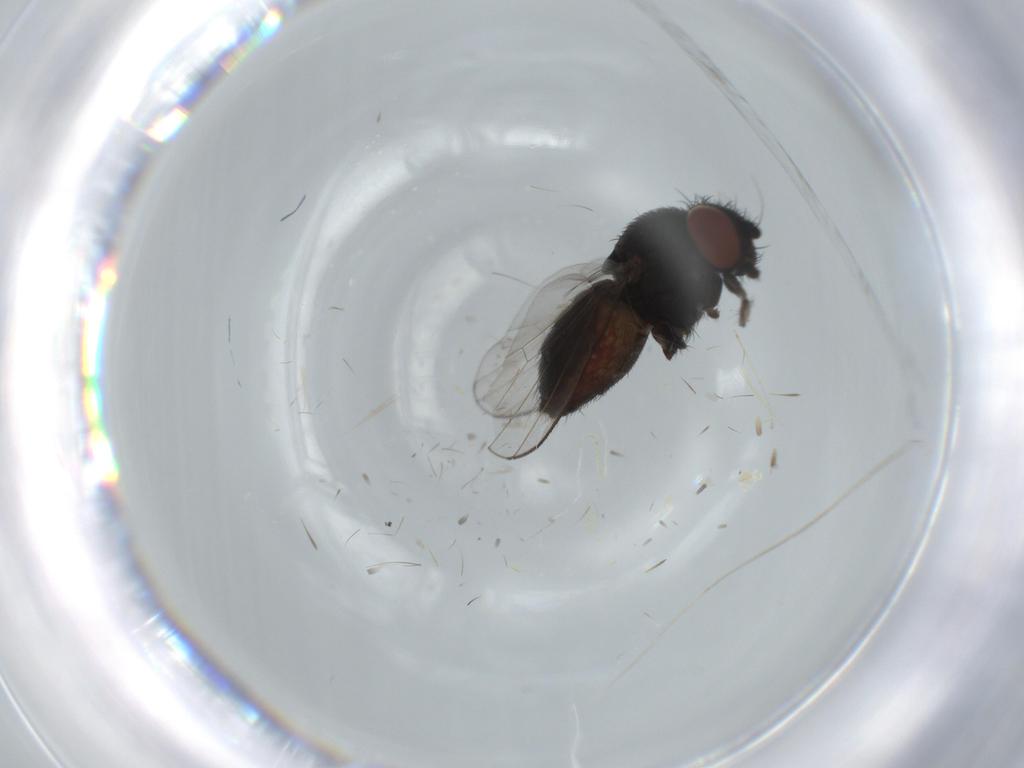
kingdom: Animalia
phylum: Arthropoda
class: Insecta
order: Diptera
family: Milichiidae
